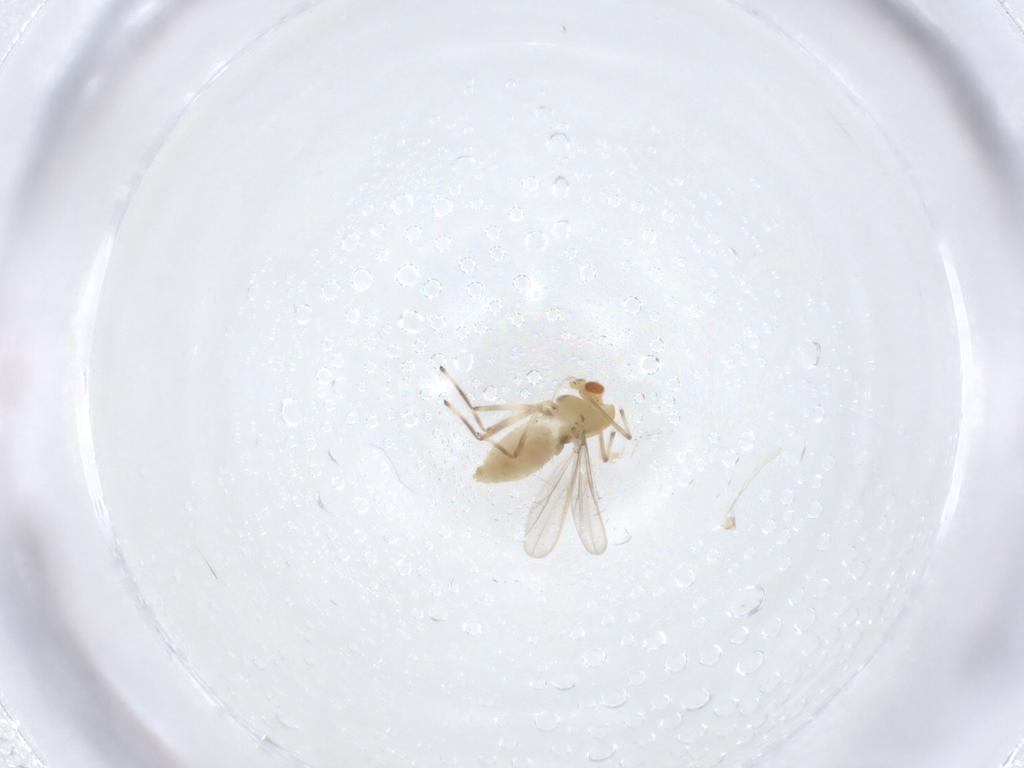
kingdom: Animalia
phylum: Arthropoda
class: Insecta
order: Diptera
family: Chironomidae
